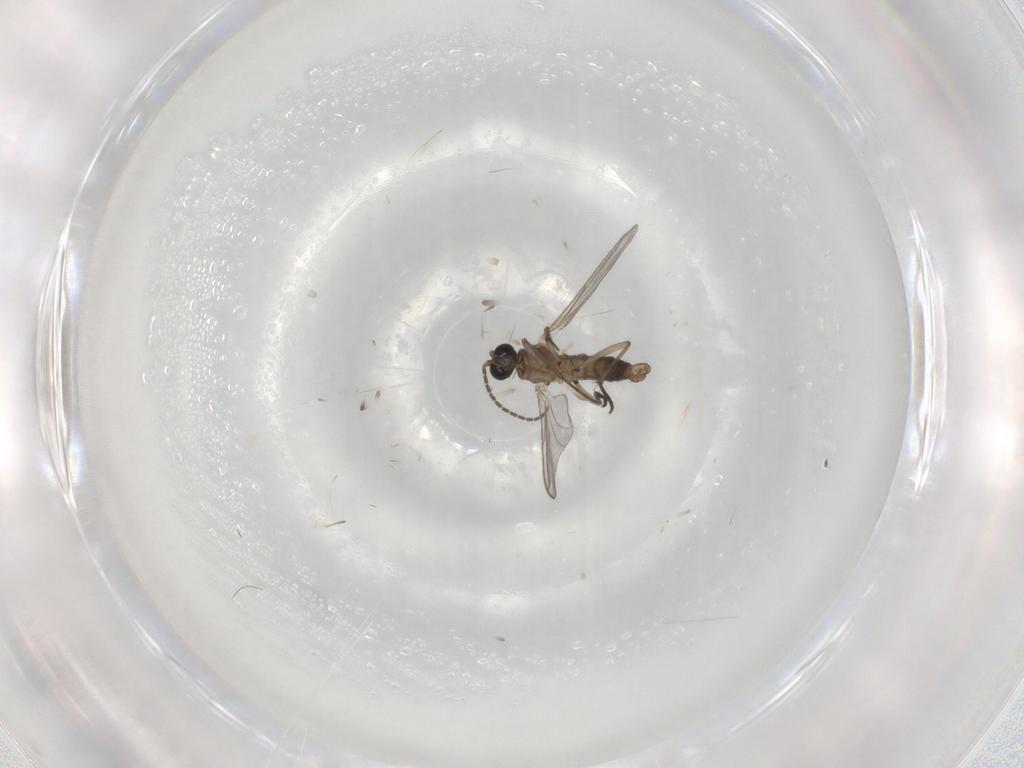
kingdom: Animalia
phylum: Arthropoda
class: Insecta
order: Diptera
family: Sciaridae
